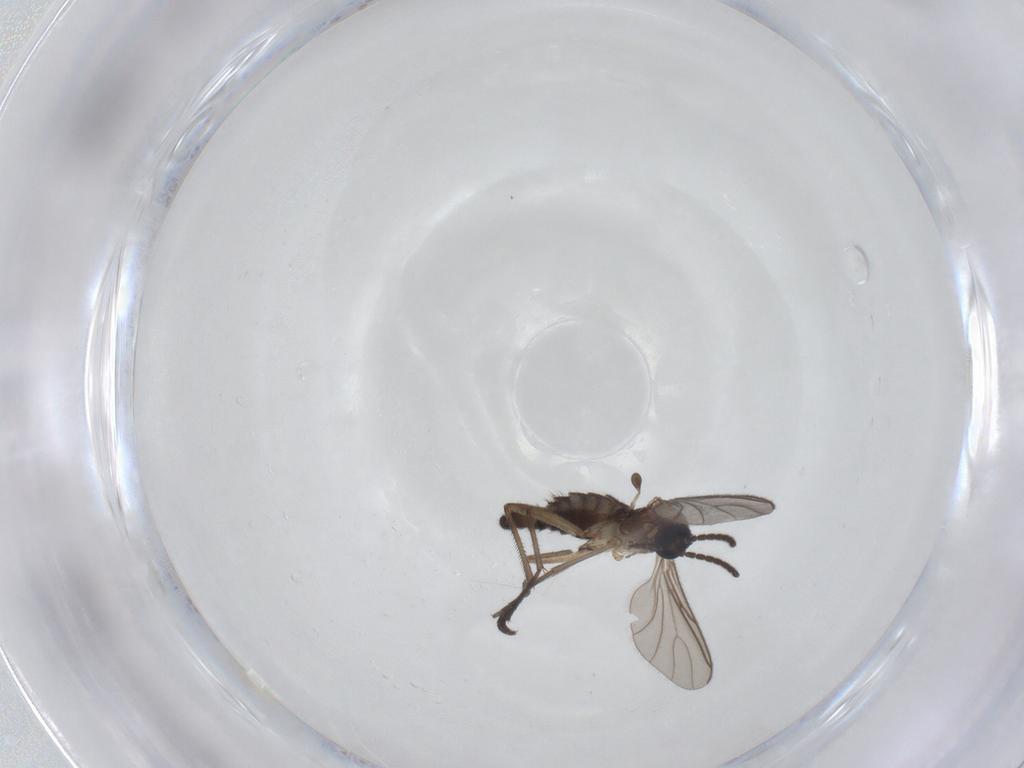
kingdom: Animalia
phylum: Arthropoda
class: Insecta
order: Diptera
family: Sciaridae
